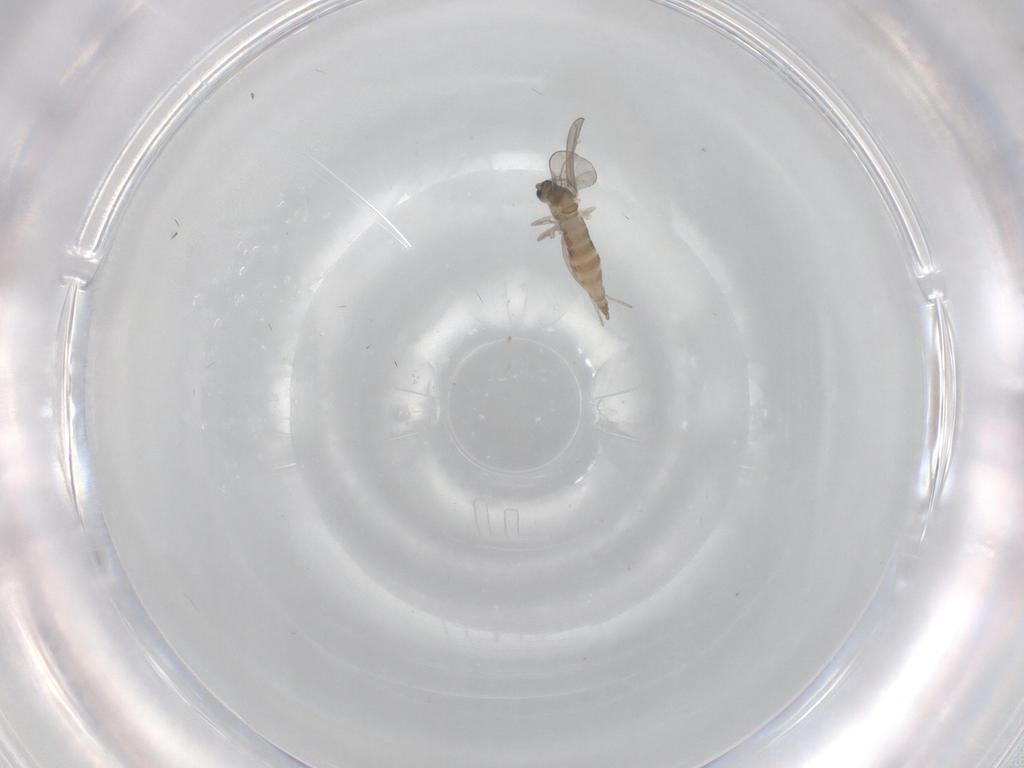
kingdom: Animalia
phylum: Arthropoda
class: Insecta
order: Diptera
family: Cecidomyiidae
